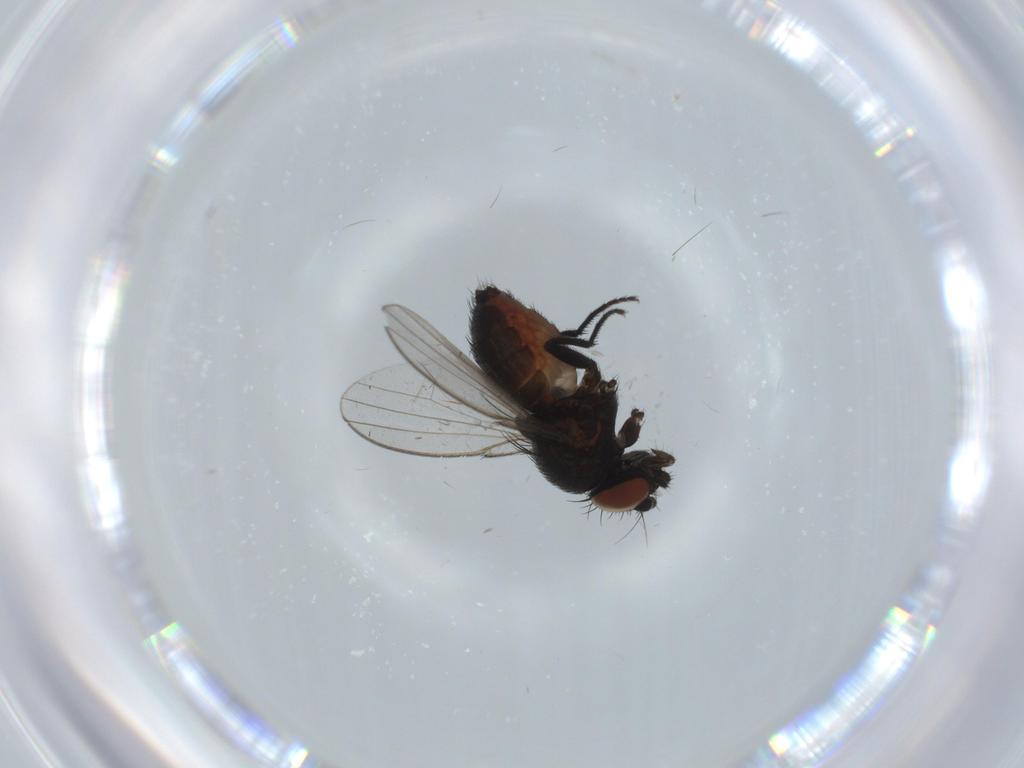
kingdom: Animalia
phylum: Arthropoda
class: Insecta
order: Diptera
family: Milichiidae
